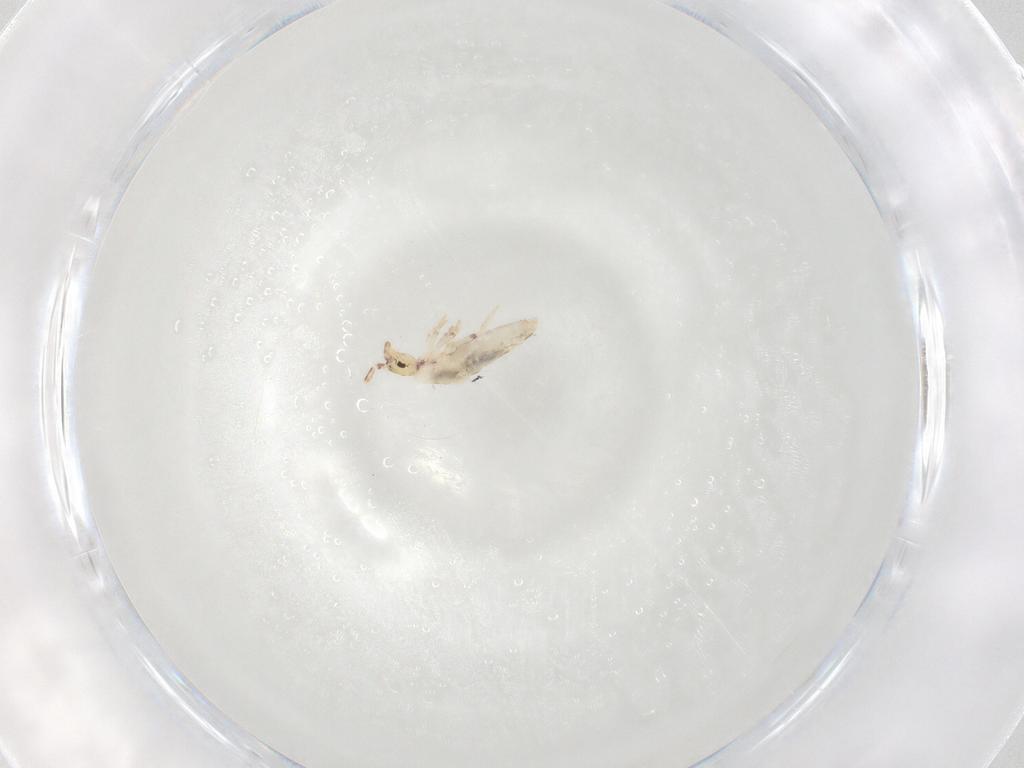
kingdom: Animalia
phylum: Arthropoda
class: Collembola
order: Entomobryomorpha
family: Entomobryidae
